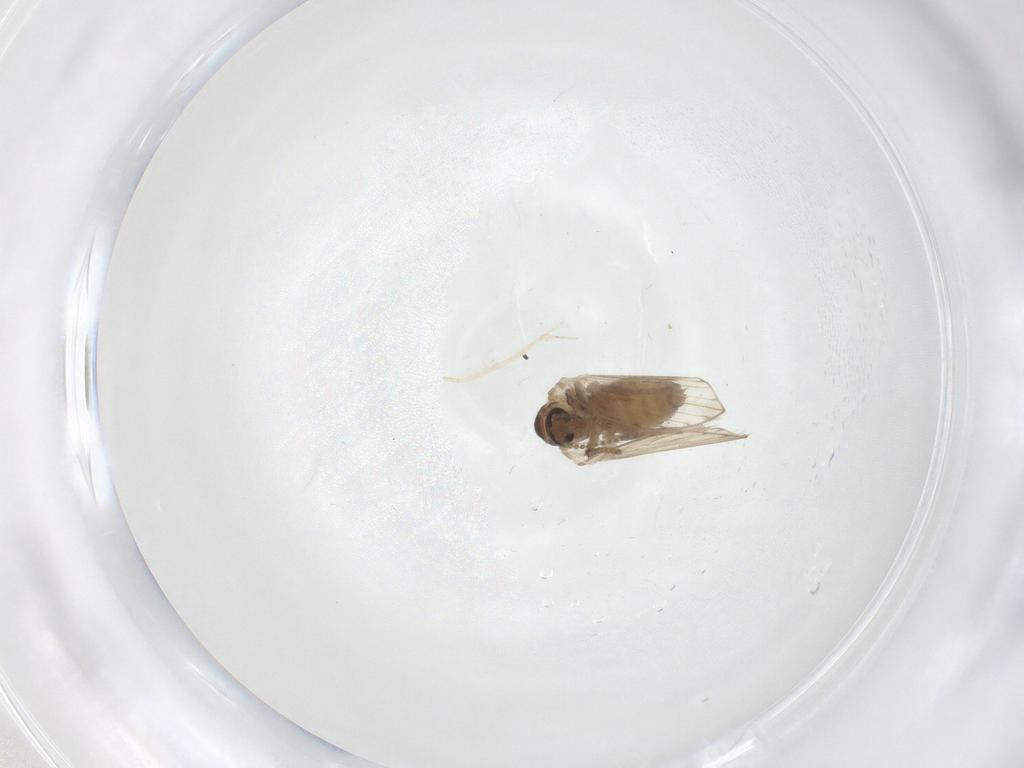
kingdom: Animalia
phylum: Arthropoda
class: Insecta
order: Diptera
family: Psychodidae
